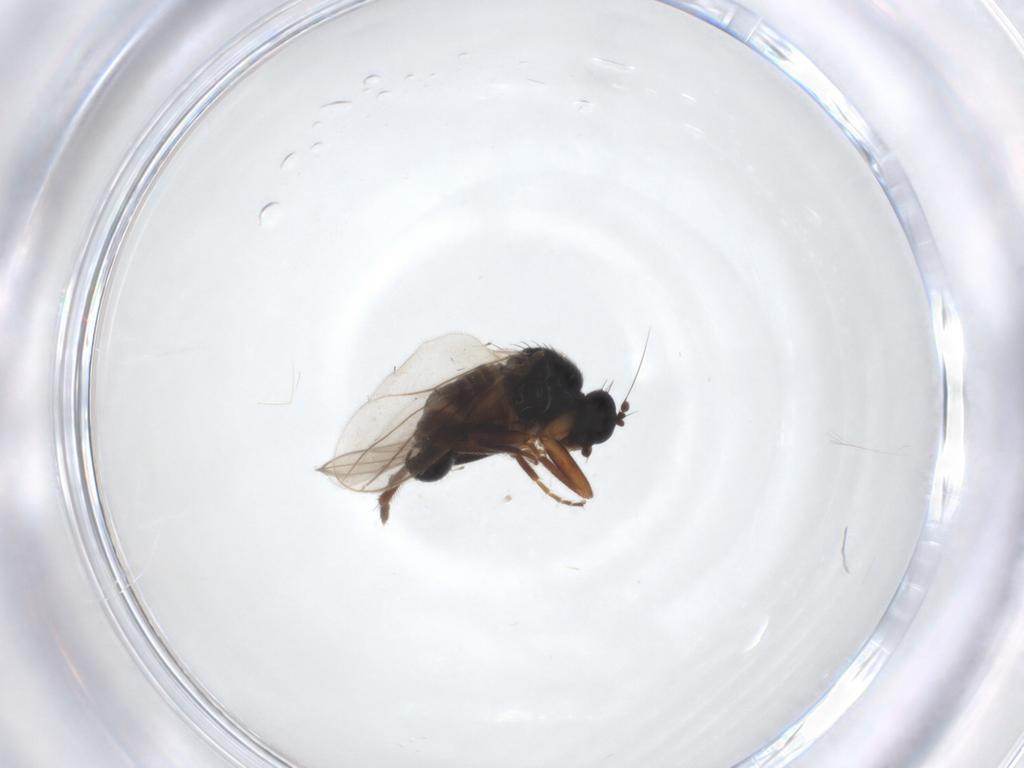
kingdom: Animalia
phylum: Arthropoda
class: Insecta
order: Diptera
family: Hybotidae
